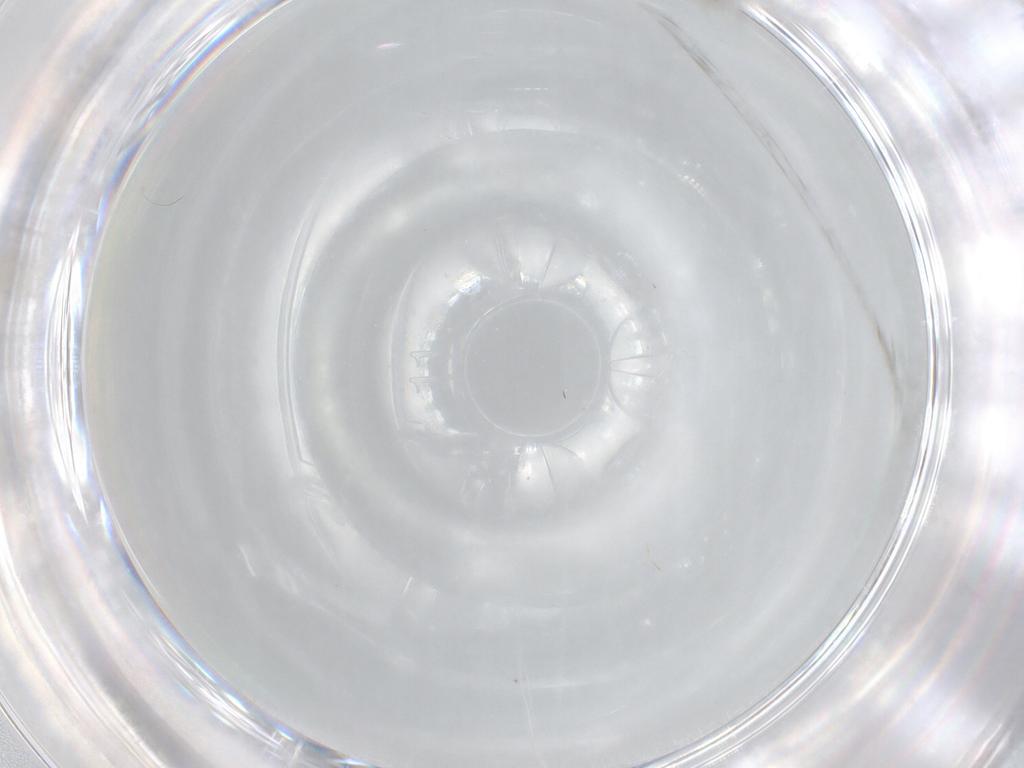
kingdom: Animalia
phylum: Arthropoda
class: Insecta
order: Diptera
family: Cecidomyiidae
